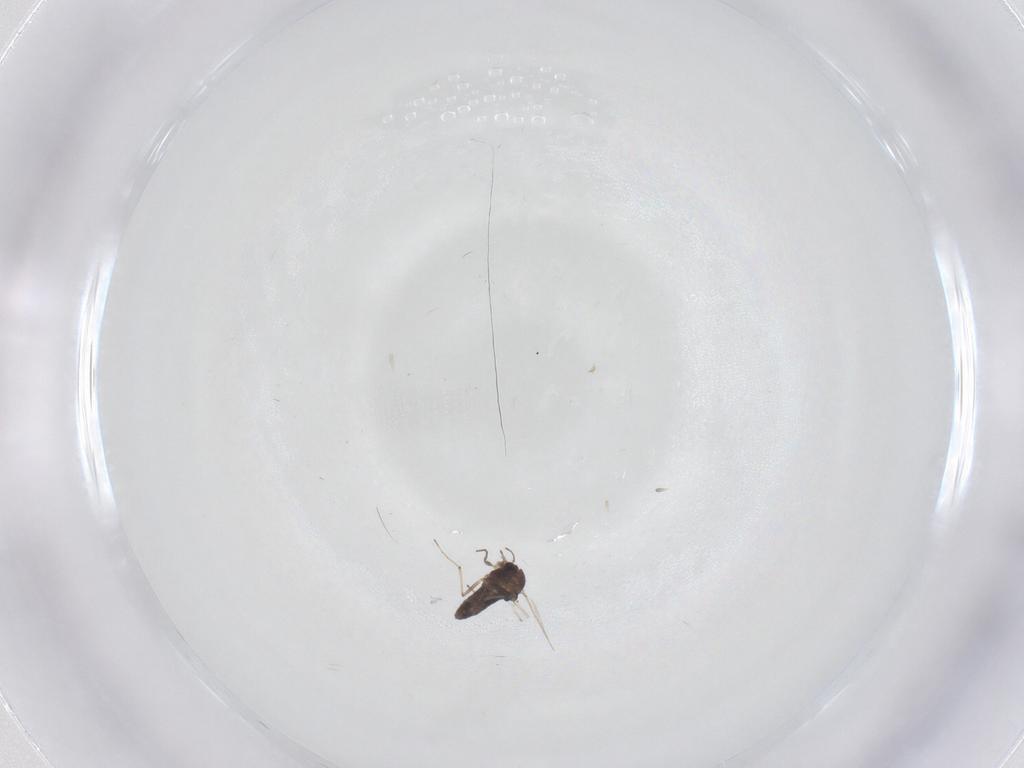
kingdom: Animalia
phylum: Arthropoda
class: Insecta
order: Diptera
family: Chironomidae
